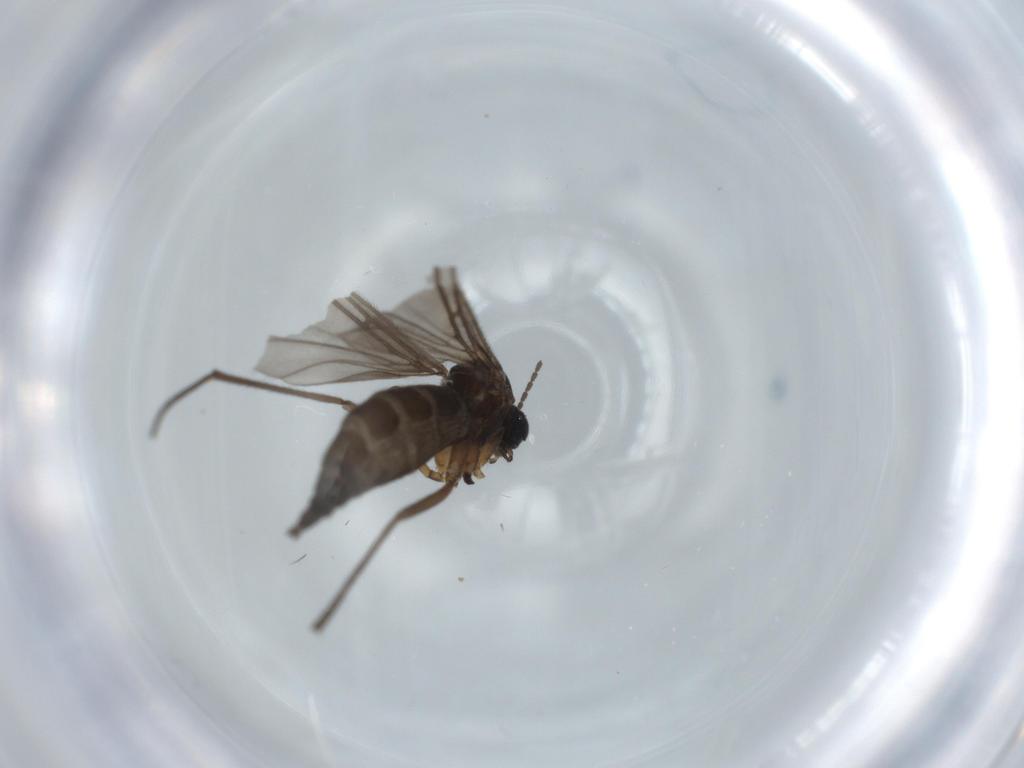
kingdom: Animalia
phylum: Arthropoda
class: Insecta
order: Diptera
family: Sciaridae
